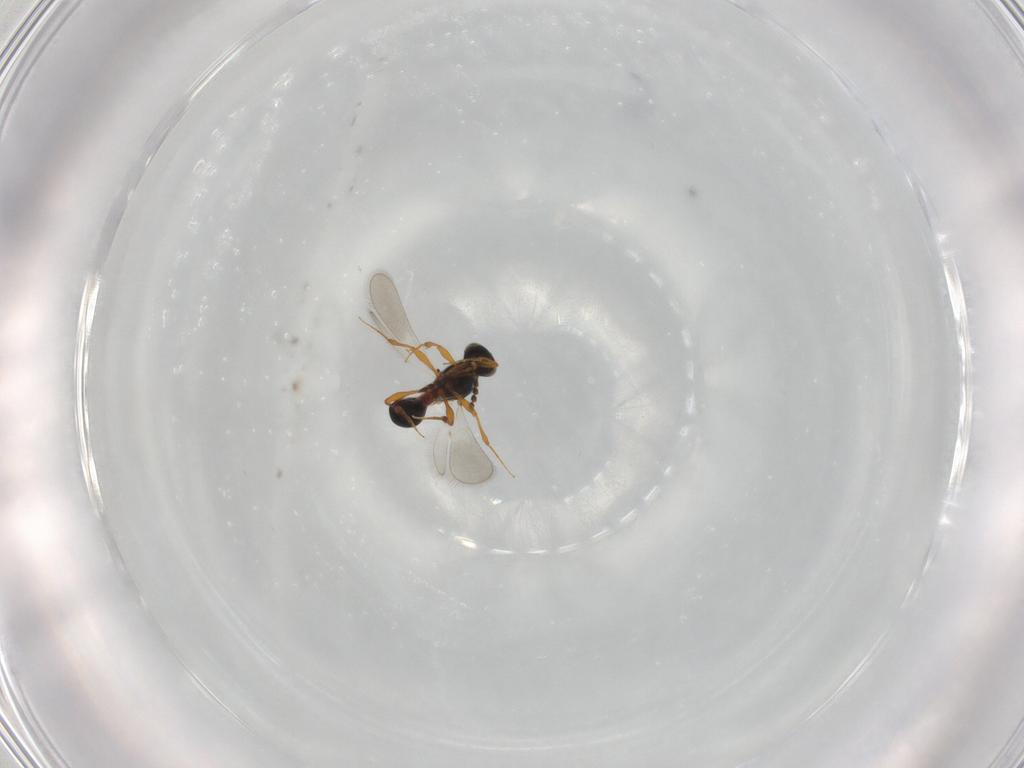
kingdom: Animalia
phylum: Arthropoda
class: Insecta
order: Hymenoptera
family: Platygastridae
